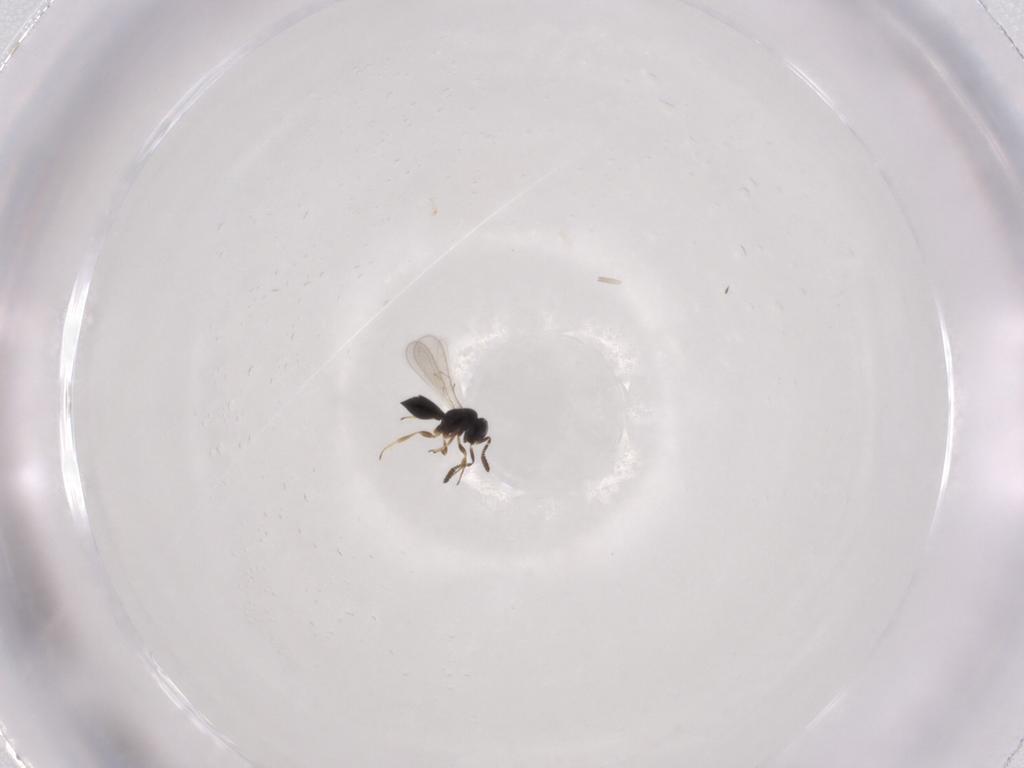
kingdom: Animalia
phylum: Arthropoda
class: Insecta
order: Hymenoptera
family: Scelionidae
